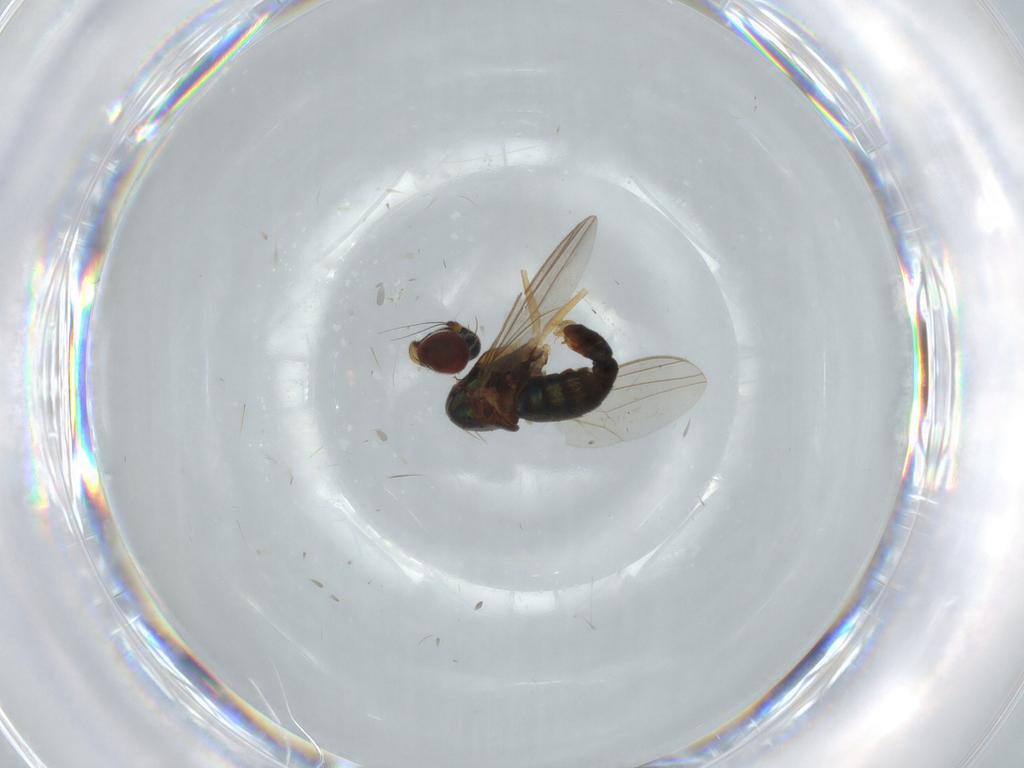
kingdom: Animalia
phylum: Arthropoda
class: Insecta
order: Diptera
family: Dolichopodidae
